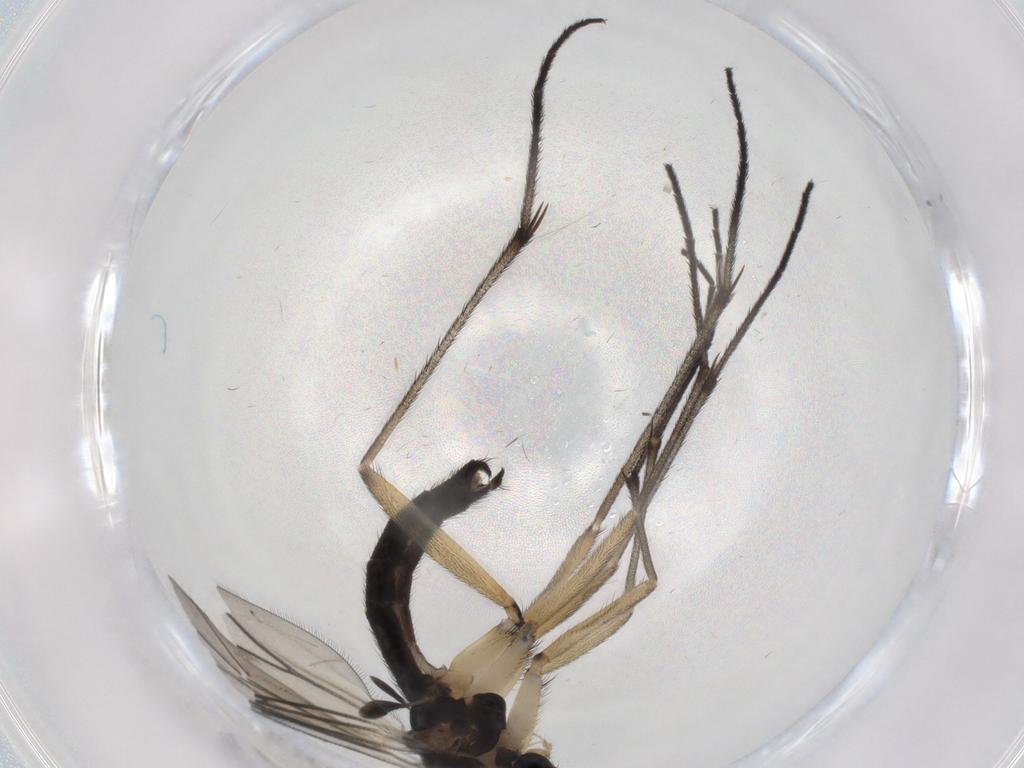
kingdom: Animalia
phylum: Arthropoda
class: Insecta
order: Diptera
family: Sciaridae
